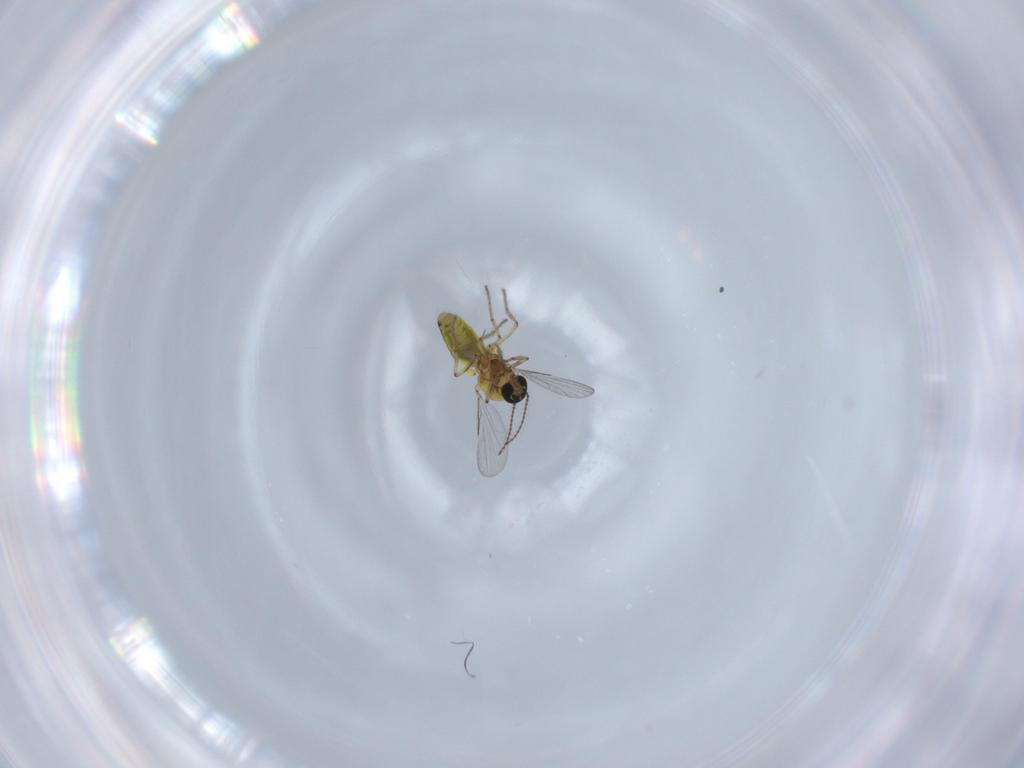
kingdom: Animalia
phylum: Arthropoda
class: Insecta
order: Diptera
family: Ceratopogonidae
